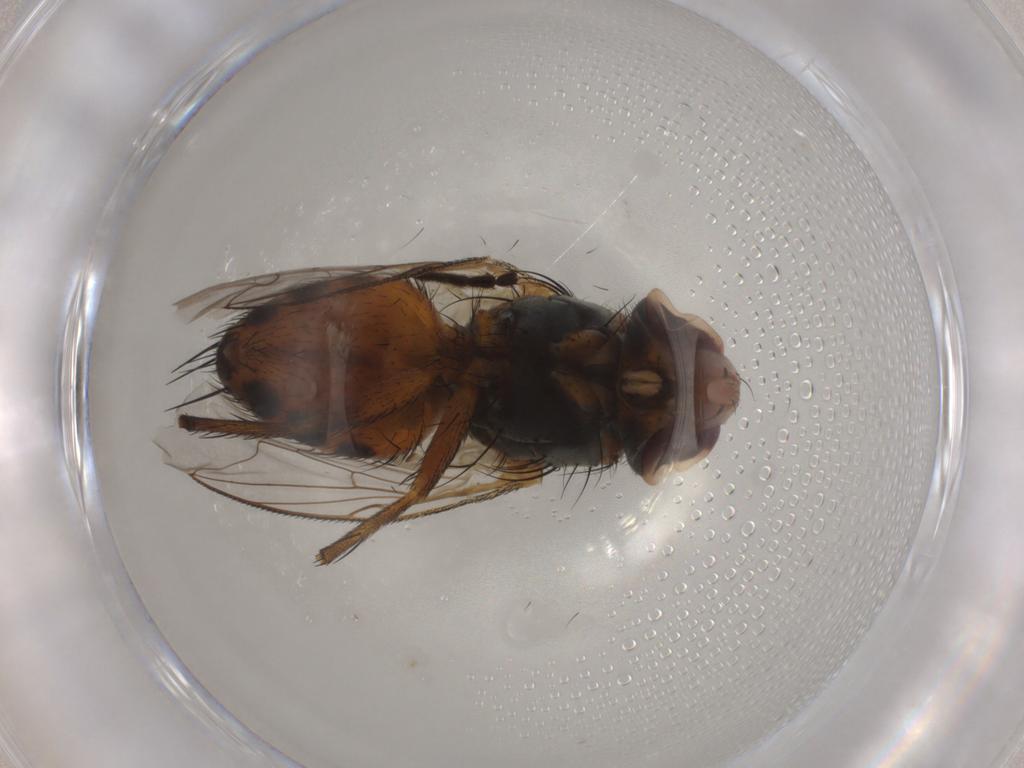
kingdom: Animalia
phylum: Arthropoda
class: Insecta
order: Diptera
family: Sarcophagidae
